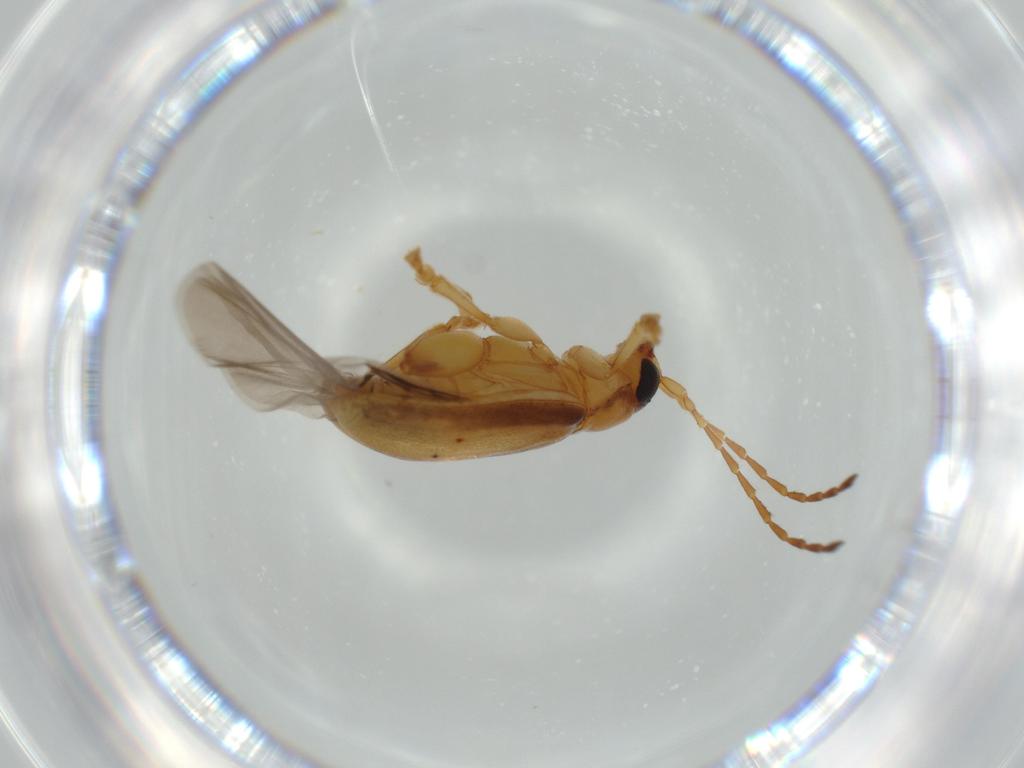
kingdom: Animalia
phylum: Arthropoda
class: Insecta
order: Coleoptera
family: Chrysomelidae
